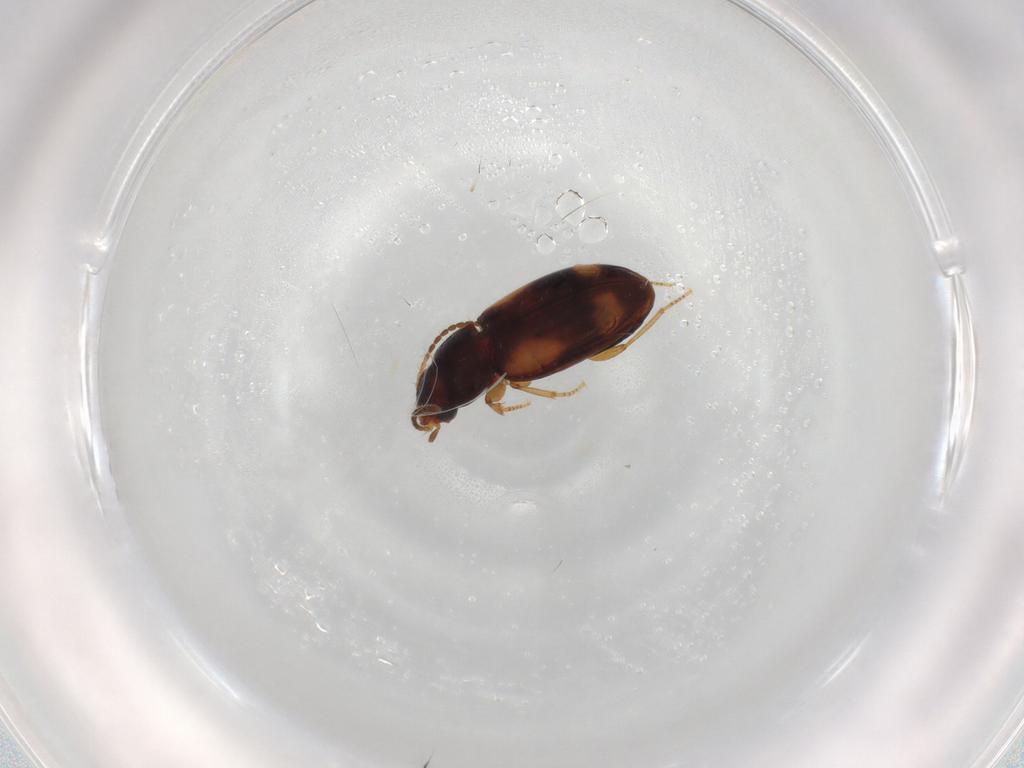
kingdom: Animalia
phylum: Arthropoda
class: Insecta
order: Coleoptera
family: Carabidae
